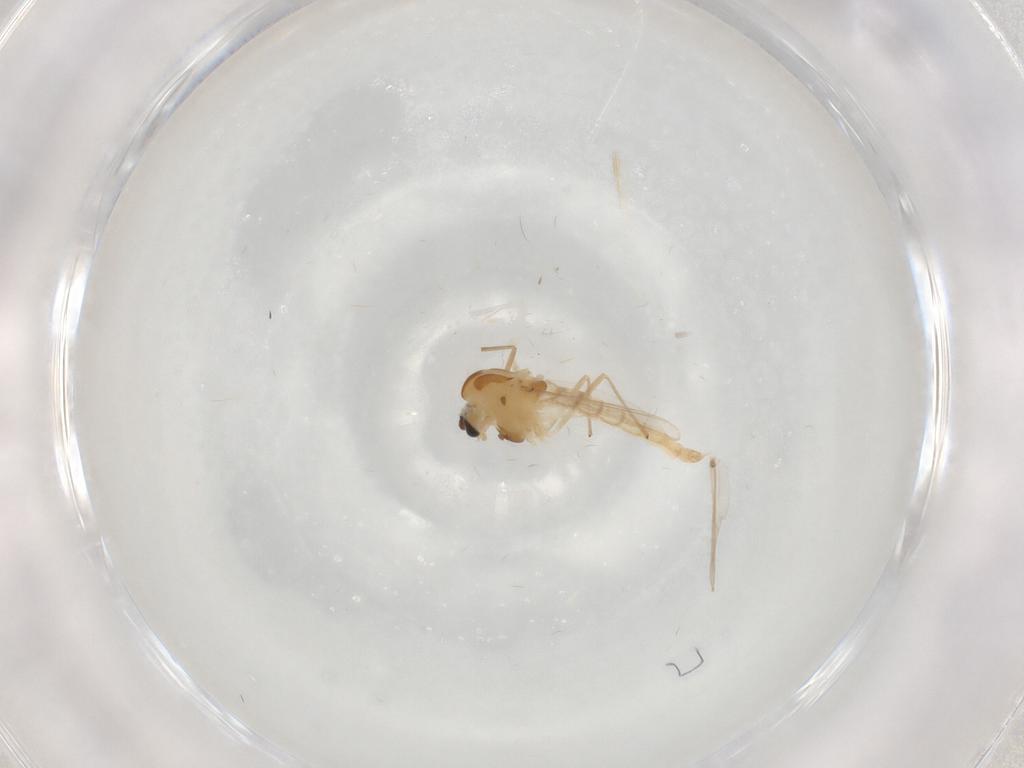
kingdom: Animalia
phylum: Arthropoda
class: Insecta
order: Diptera
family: Chironomidae
